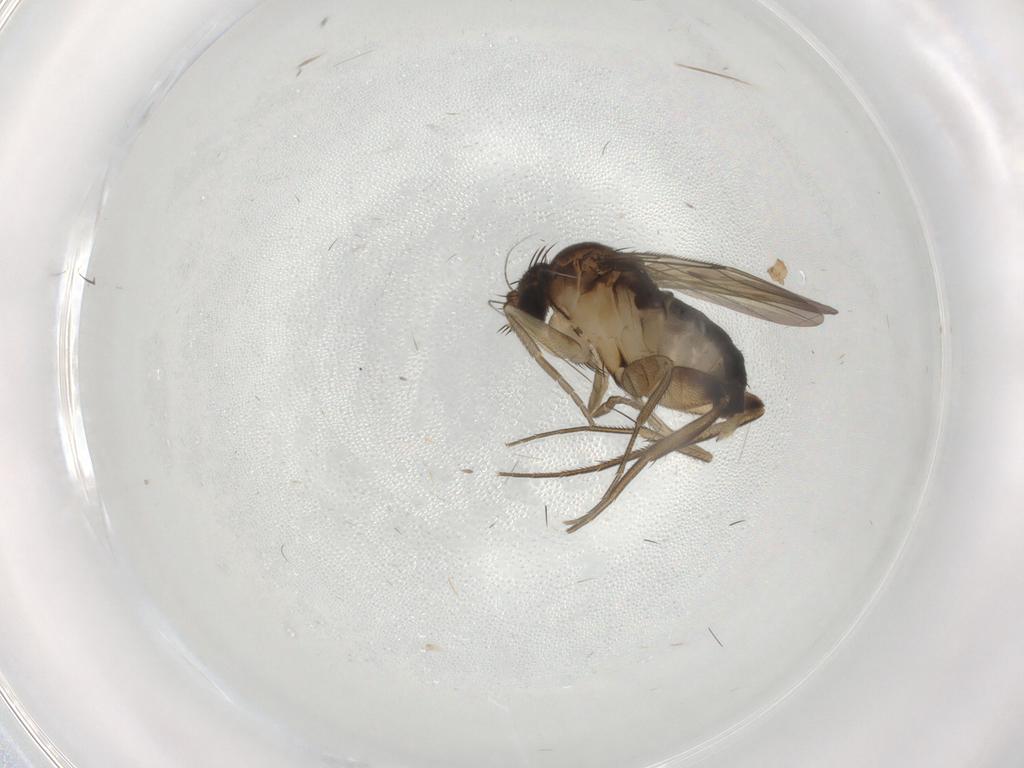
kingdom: Animalia
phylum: Arthropoda
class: Insecta
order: Diptera
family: Phoridae
